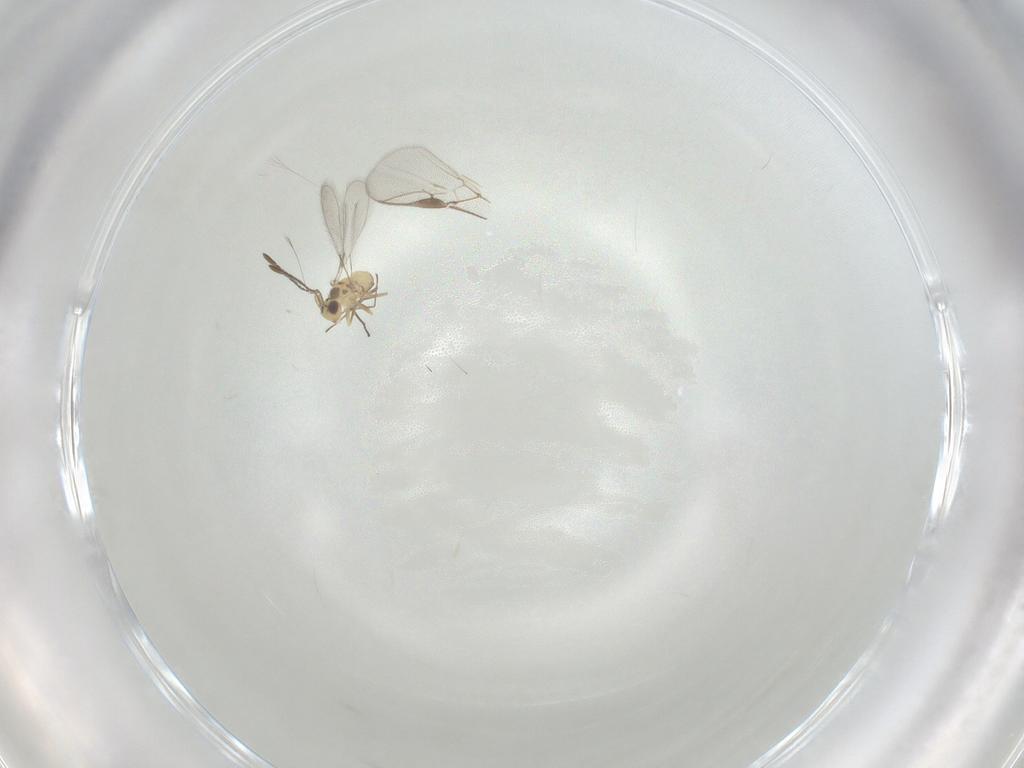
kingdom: Animalia
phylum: Arthropoda
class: Insecta
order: Hymenoptera
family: Braconidae
